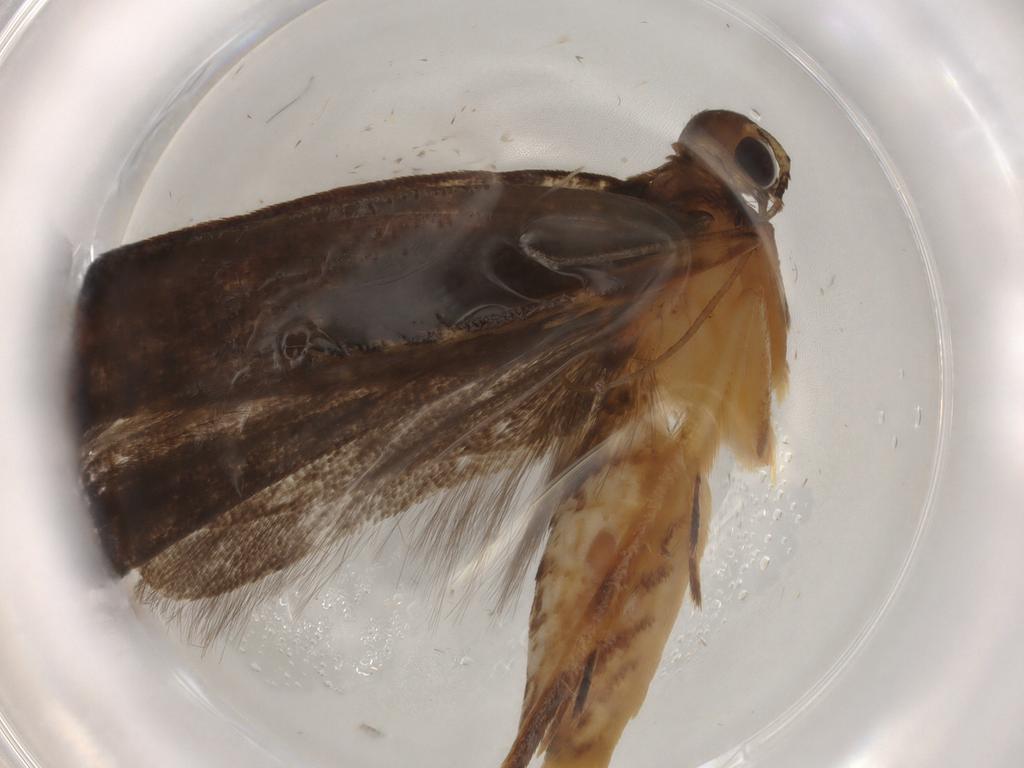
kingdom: Animalia
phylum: Arthropoda
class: Insecta
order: Lepidoptera
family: Gelechiidae
